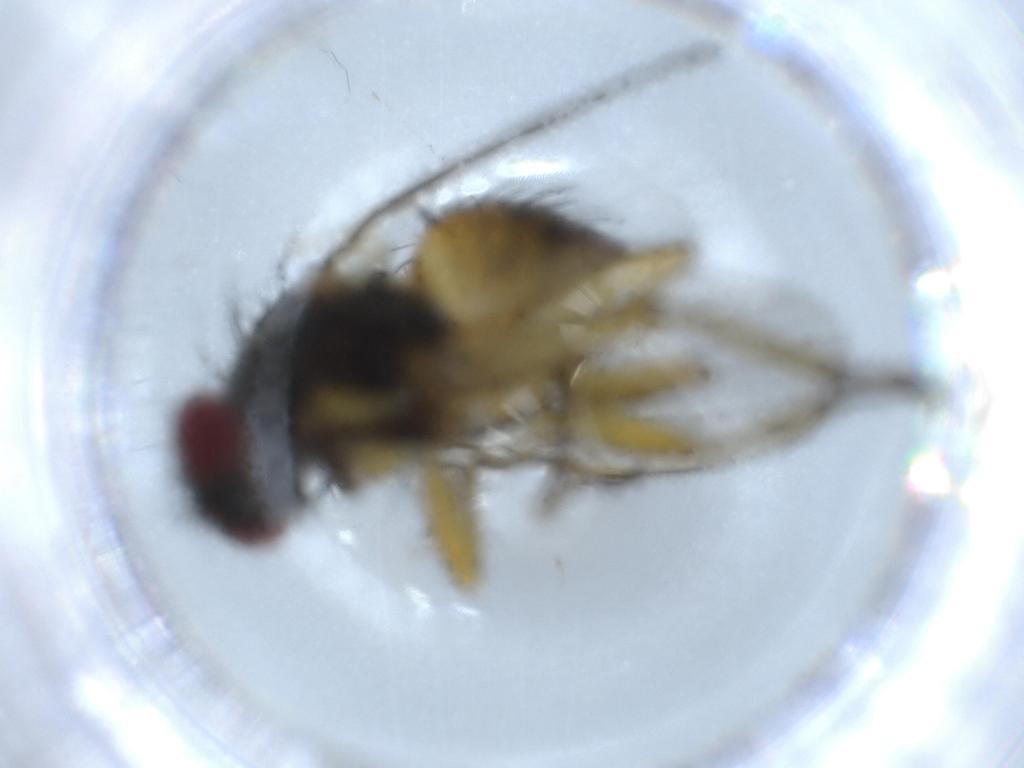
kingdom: Animalia
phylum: Arthropoda
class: Insecta
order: Diptera
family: Muscidae
